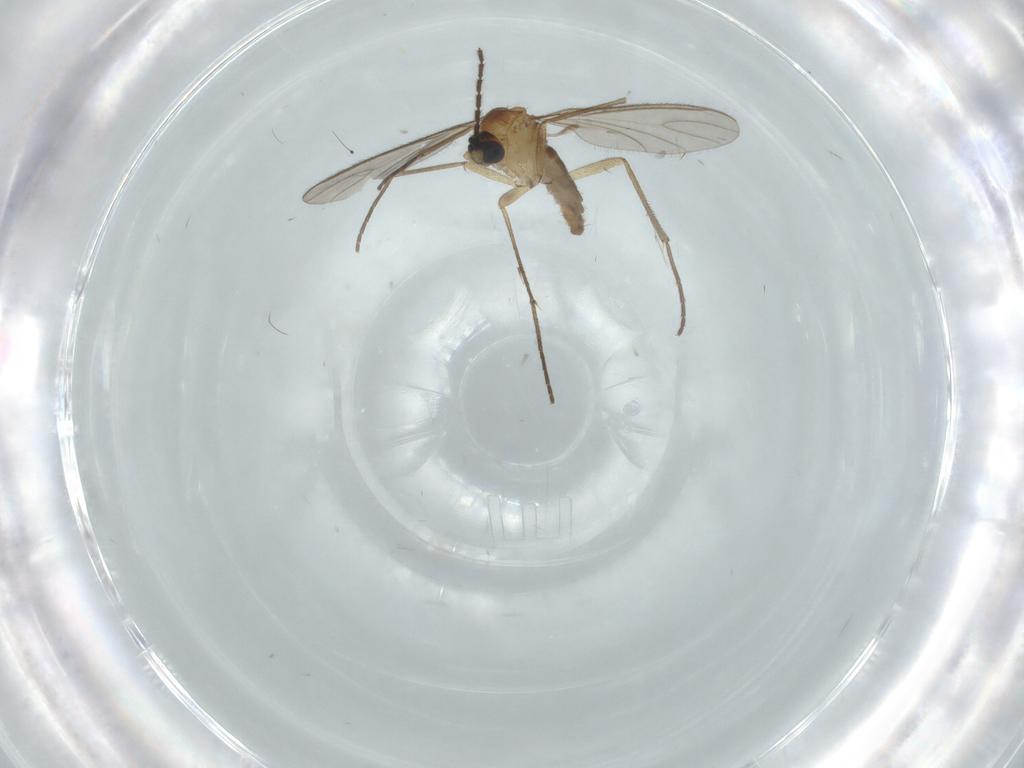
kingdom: Animalia
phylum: Arthropoda
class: Insecta
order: Diptera
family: Sciaridae
